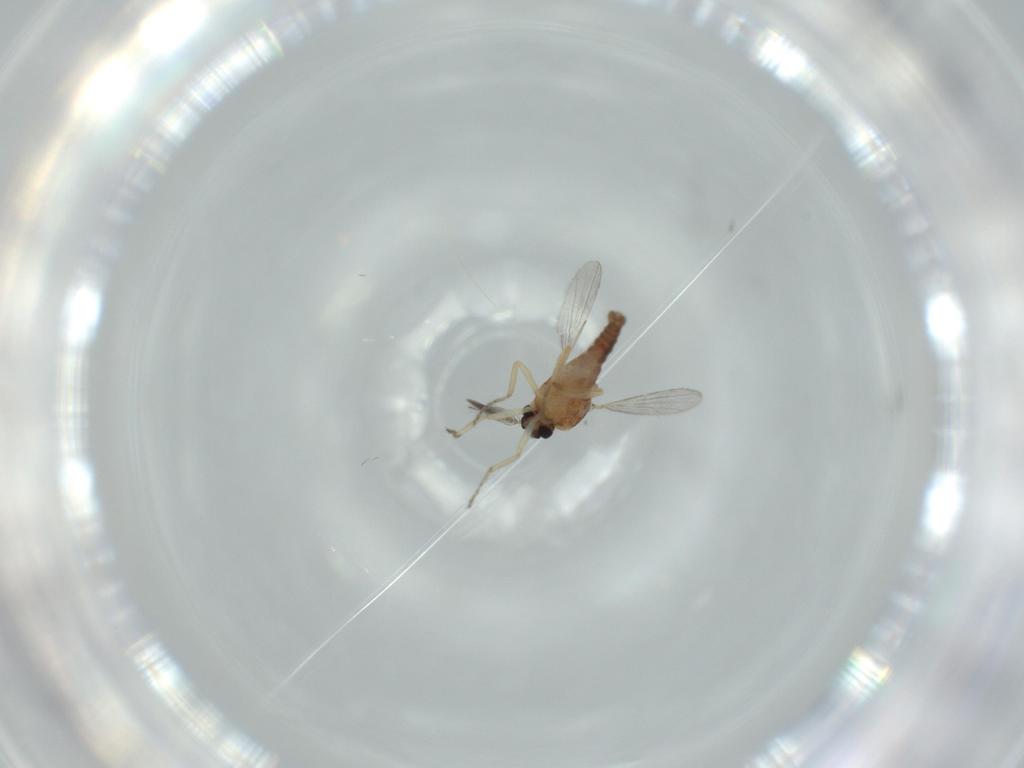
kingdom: Animalia
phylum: Arthropoda
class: Insecta
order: Diptera
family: Ceratopogonidae
